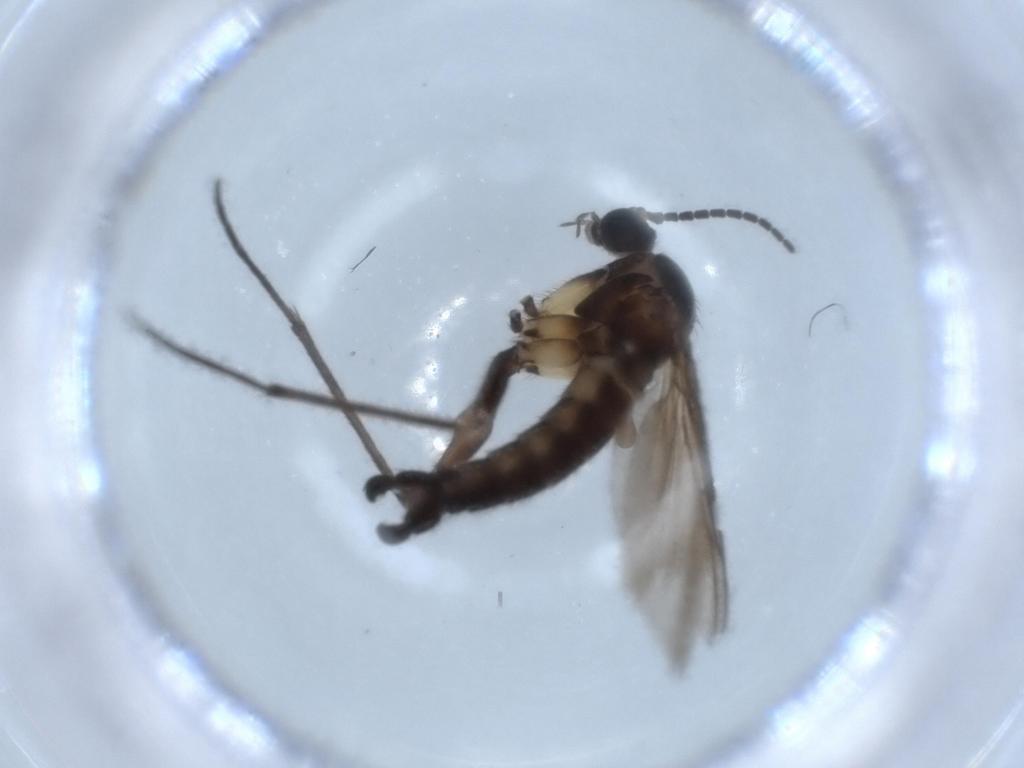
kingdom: Animalia
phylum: Arthropoda
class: Insecta
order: Diptera
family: Sciaridae
